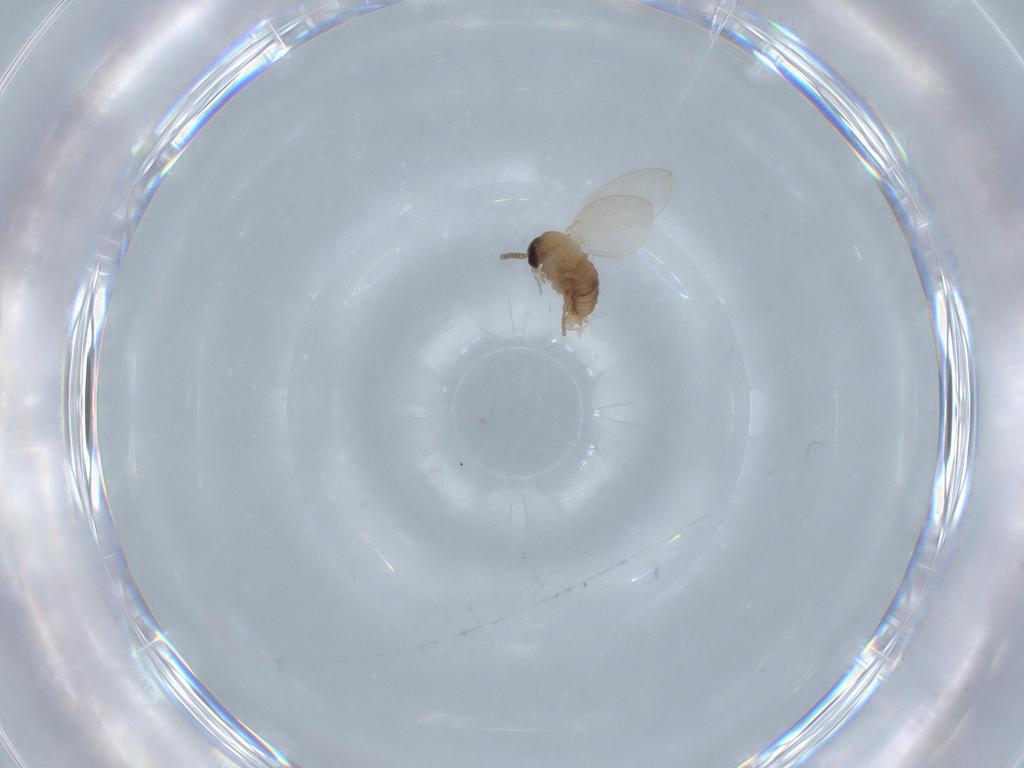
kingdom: Animalia
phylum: Arthropoda
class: Insecta
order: Diptera
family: Psychodidae
